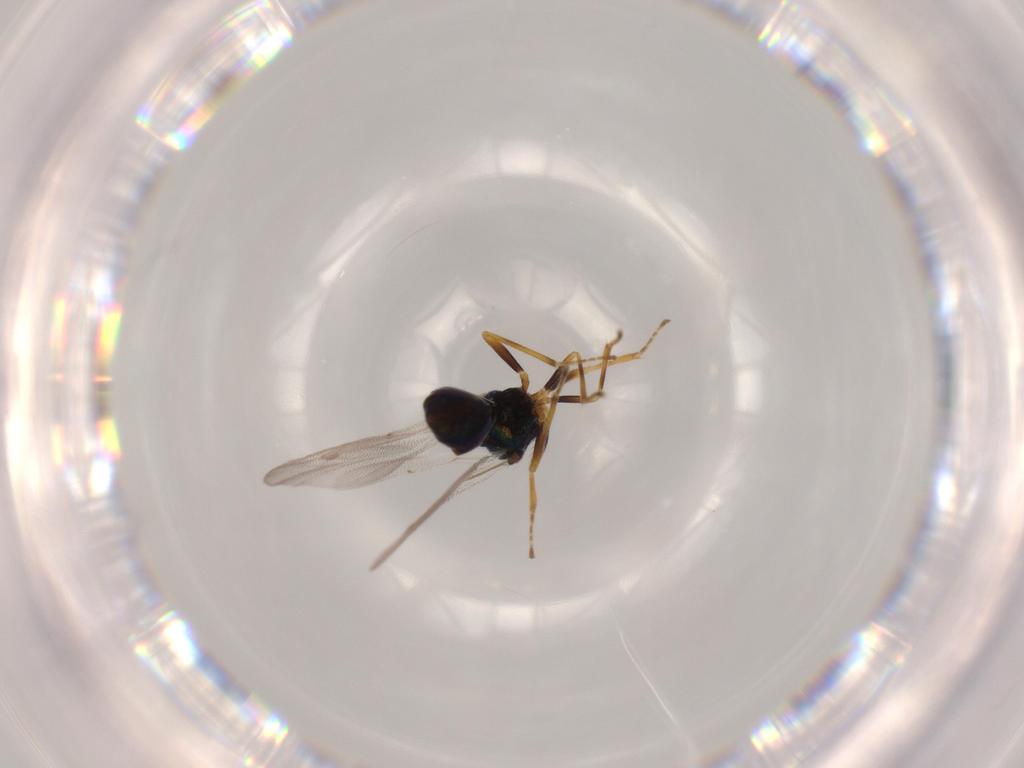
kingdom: Animalia
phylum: Arthropoda
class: Insecta
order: Hymenoptera
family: Pteromalidae
